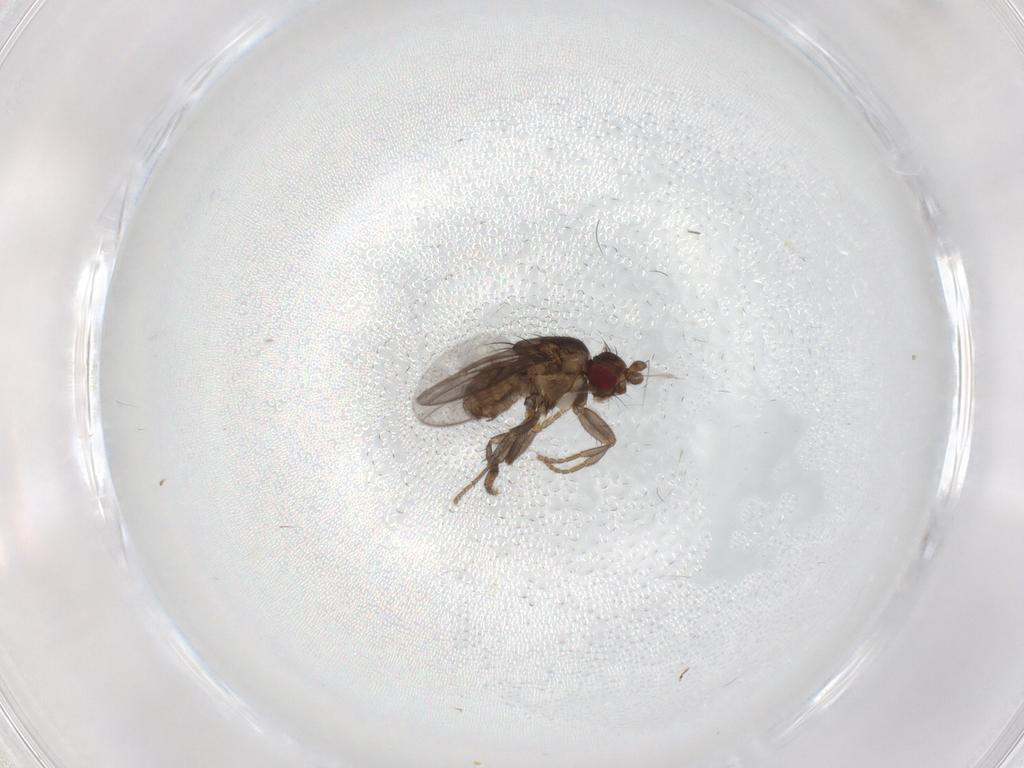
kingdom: Animalia
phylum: Arthropoda
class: Insecta
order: Diptera
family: Sphaeroceridae
